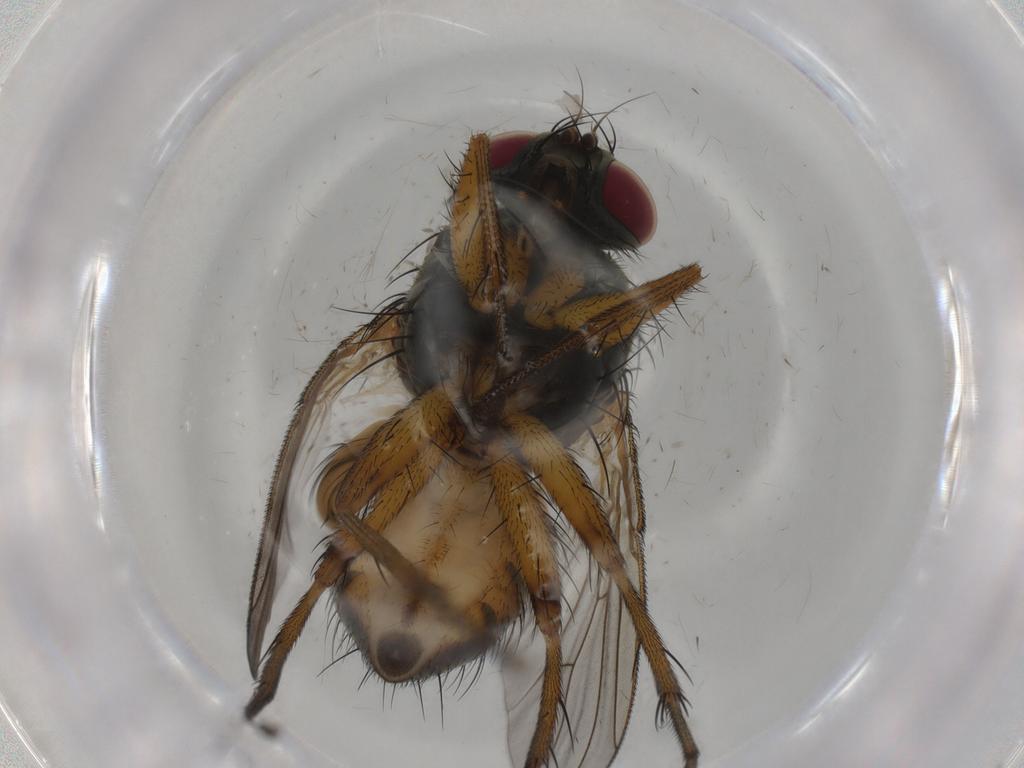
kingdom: Animalia
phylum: Arthropoda
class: Insecta
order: Diptera
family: Muscidae
